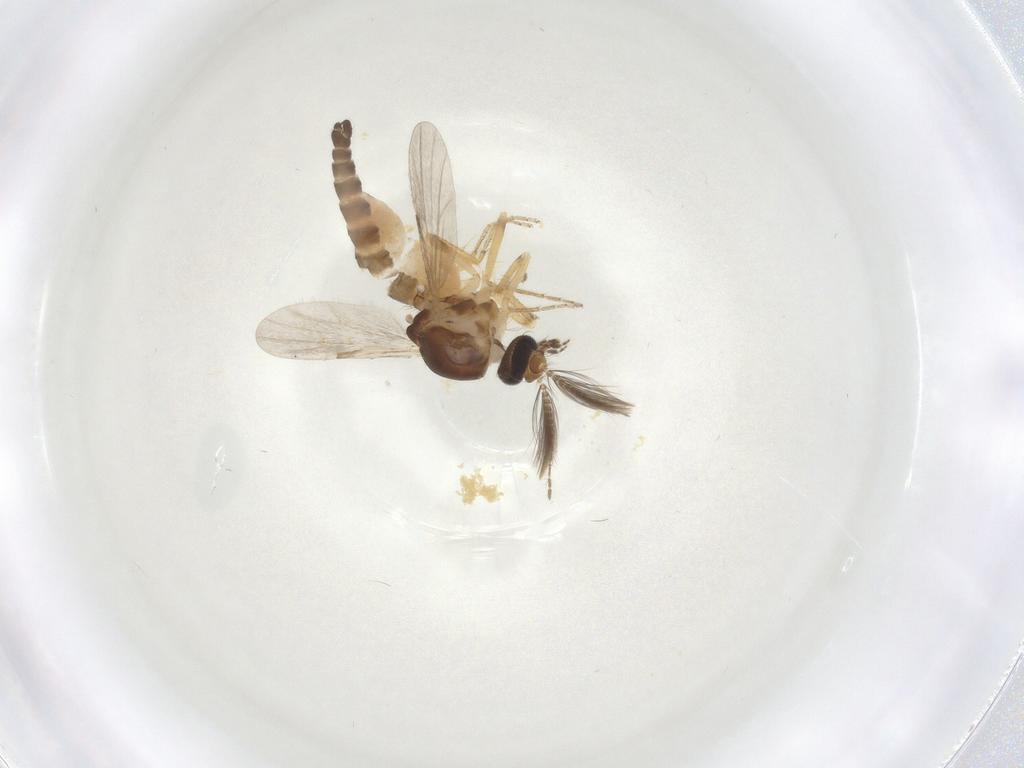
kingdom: Animalia
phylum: Arthropoda
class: Insecta
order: Diptera
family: Ceratopogonidae
